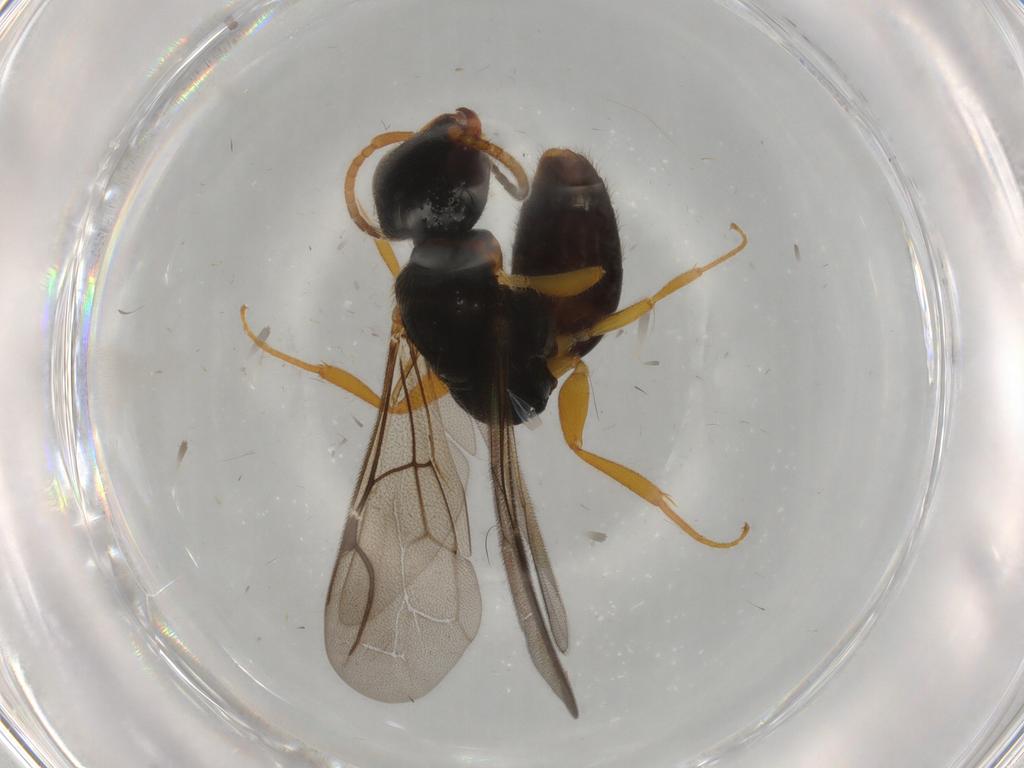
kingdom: Animalia
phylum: Arthropoda
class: Insecta
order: Hymenoptera
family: Bethylidae
